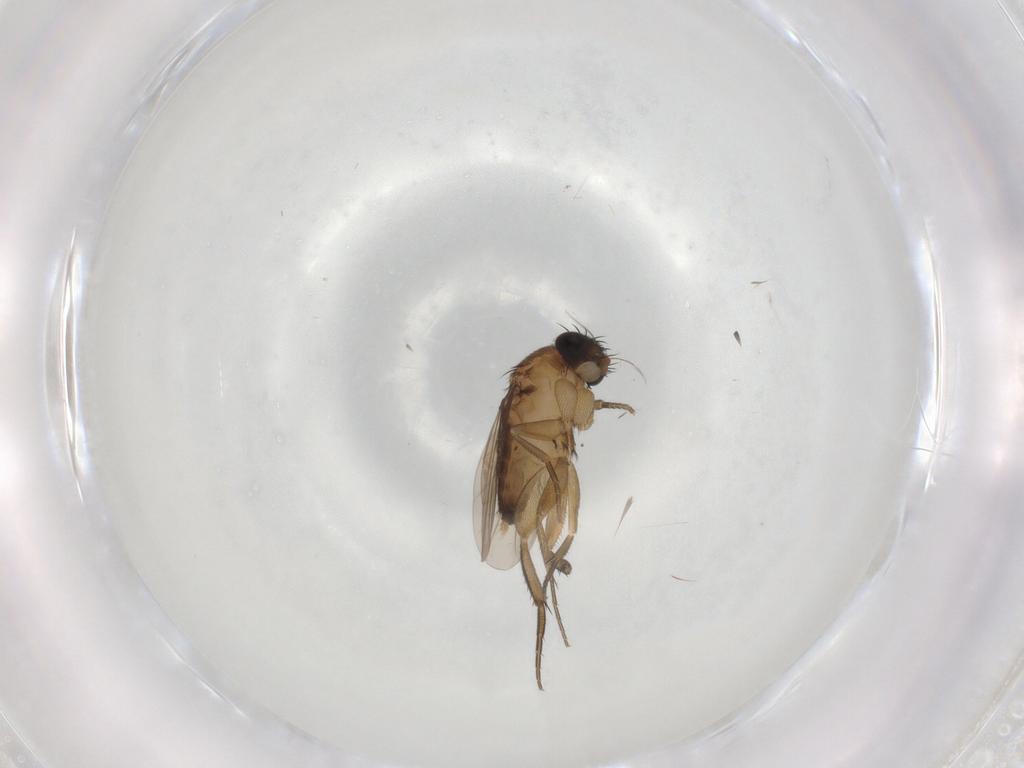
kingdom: Animalia
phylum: Arthropoda
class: Insecta
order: Diptera
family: Phoridae
